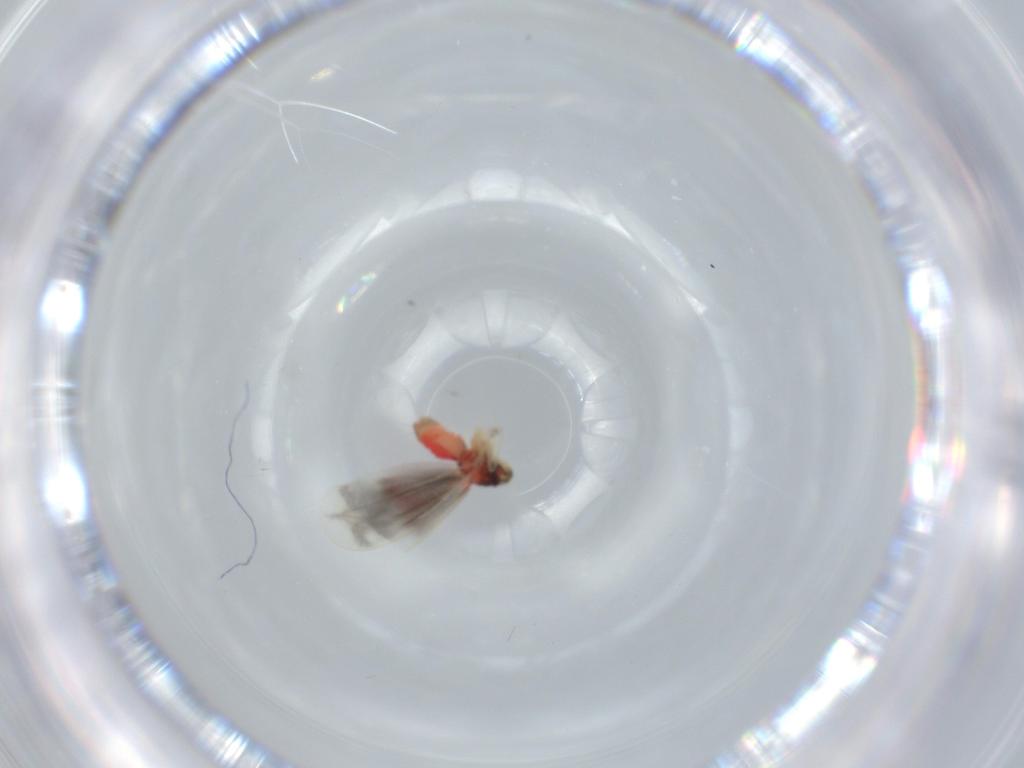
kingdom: Animalia
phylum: Arthropoda
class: Insecta
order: Hemiptera
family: Aleyrodidae
